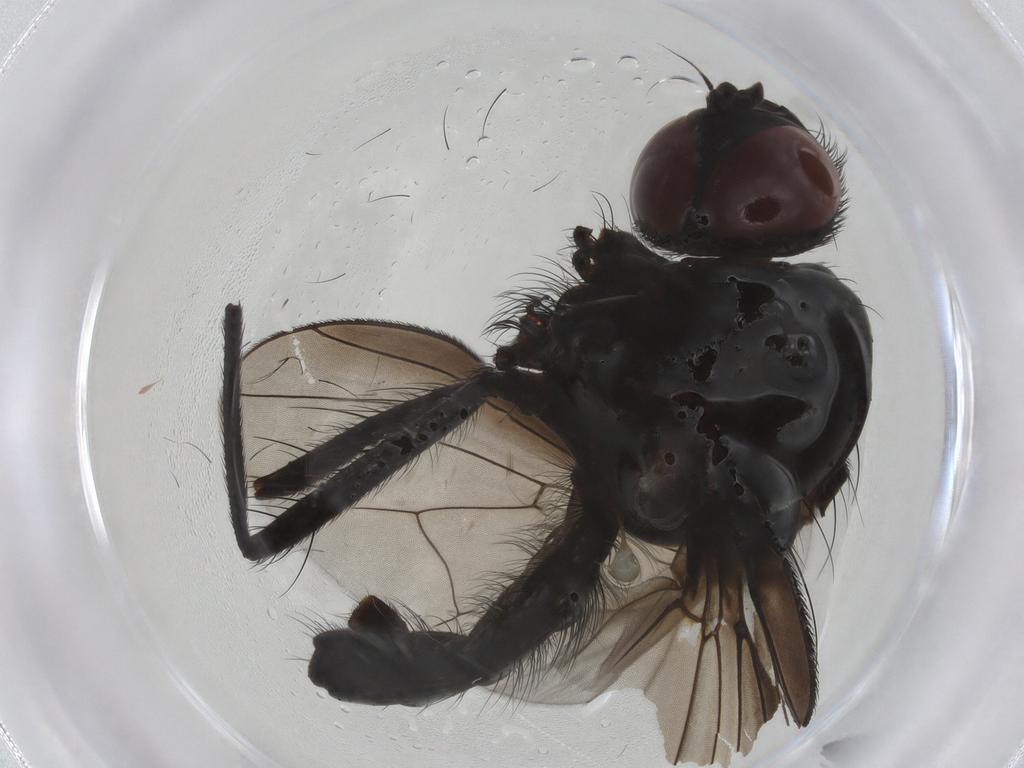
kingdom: Animalia
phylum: Arthropoda
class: Insecta
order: Diptera
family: Anthomyiidae
